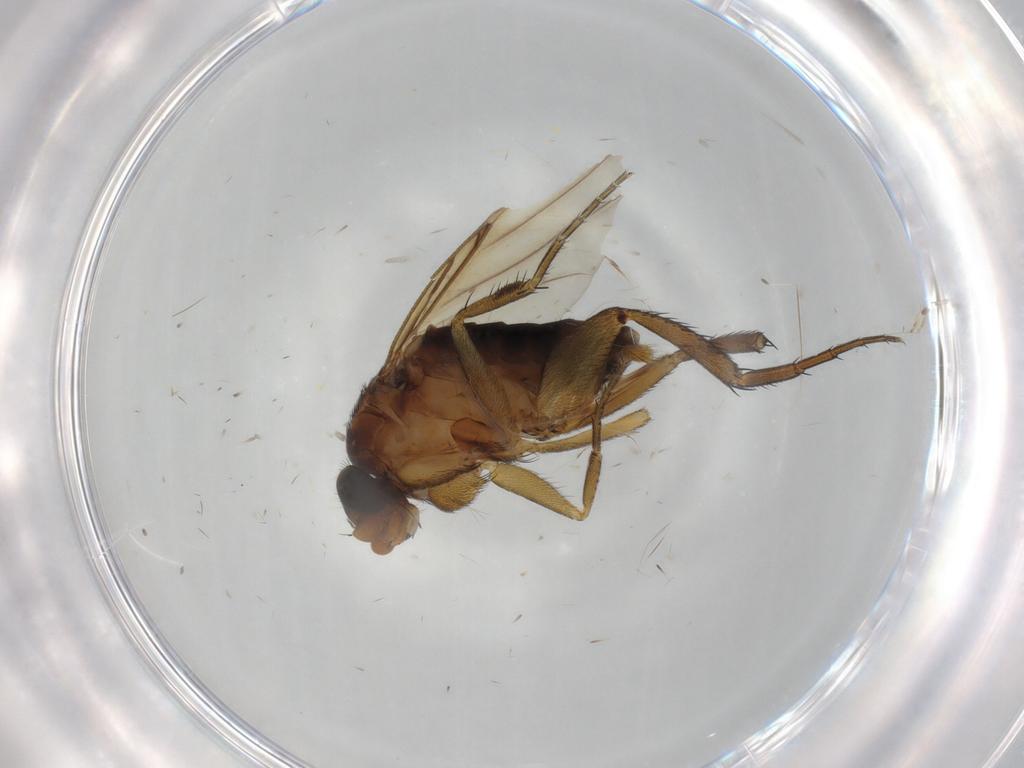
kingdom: Animalia
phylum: Arthropoda
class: Insecta
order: Diptera
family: Phoridae
